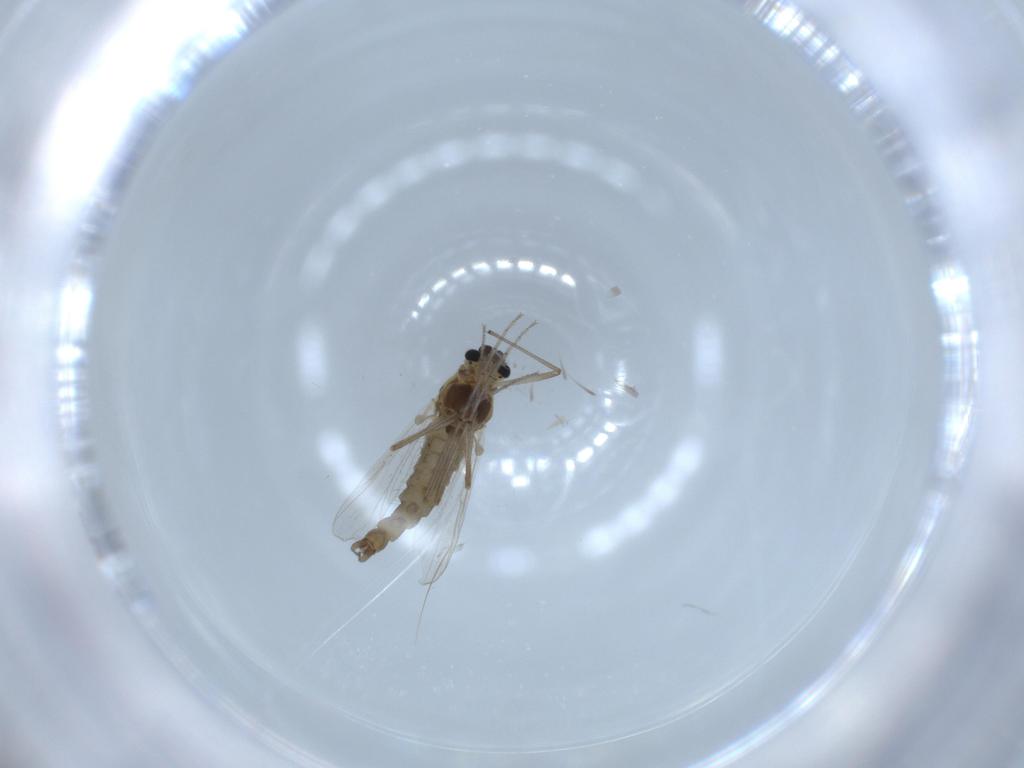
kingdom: Animalia
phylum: Arthropoda
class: Insecta
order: Diptera
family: Chironomidae
